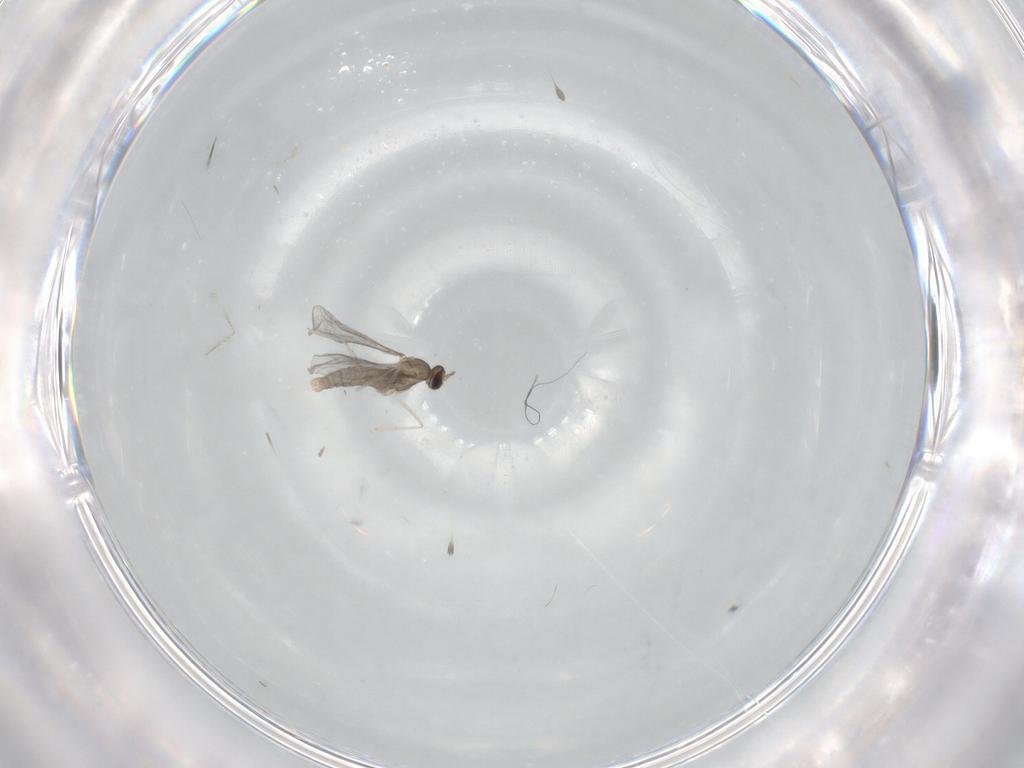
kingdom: Animalia
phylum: Arthropoda
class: Insecta
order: Diptera
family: Cecidomyiidae
